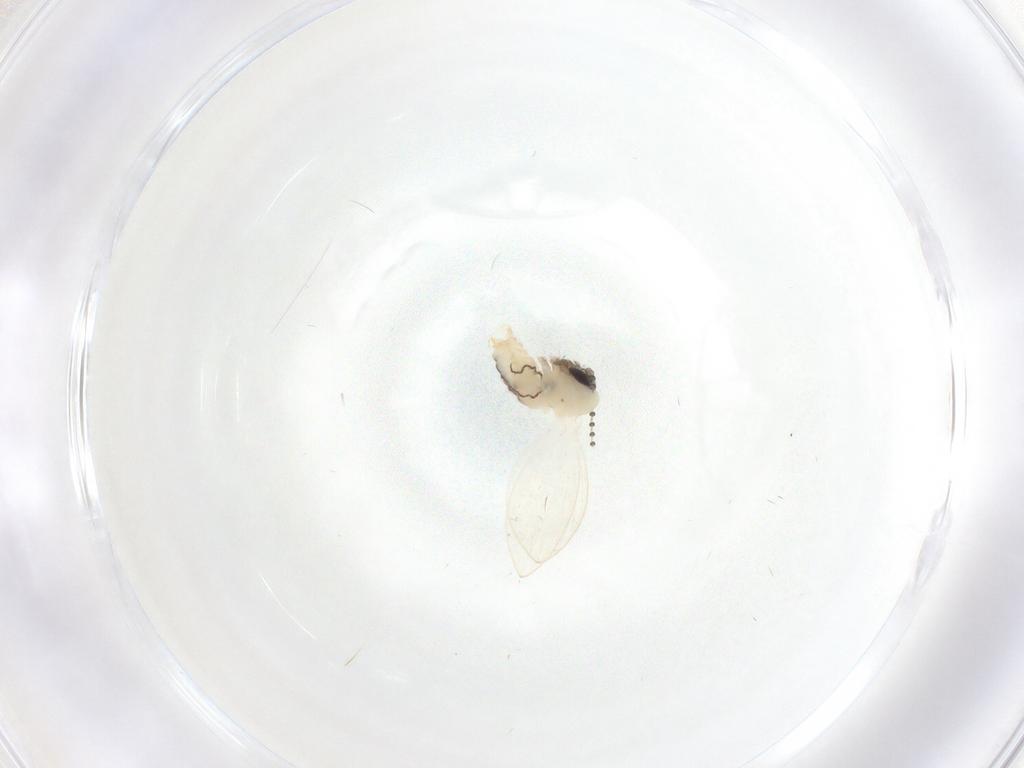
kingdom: Animalia
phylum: Arthropoda
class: Insecta
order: Diptera
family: Psychodidae
